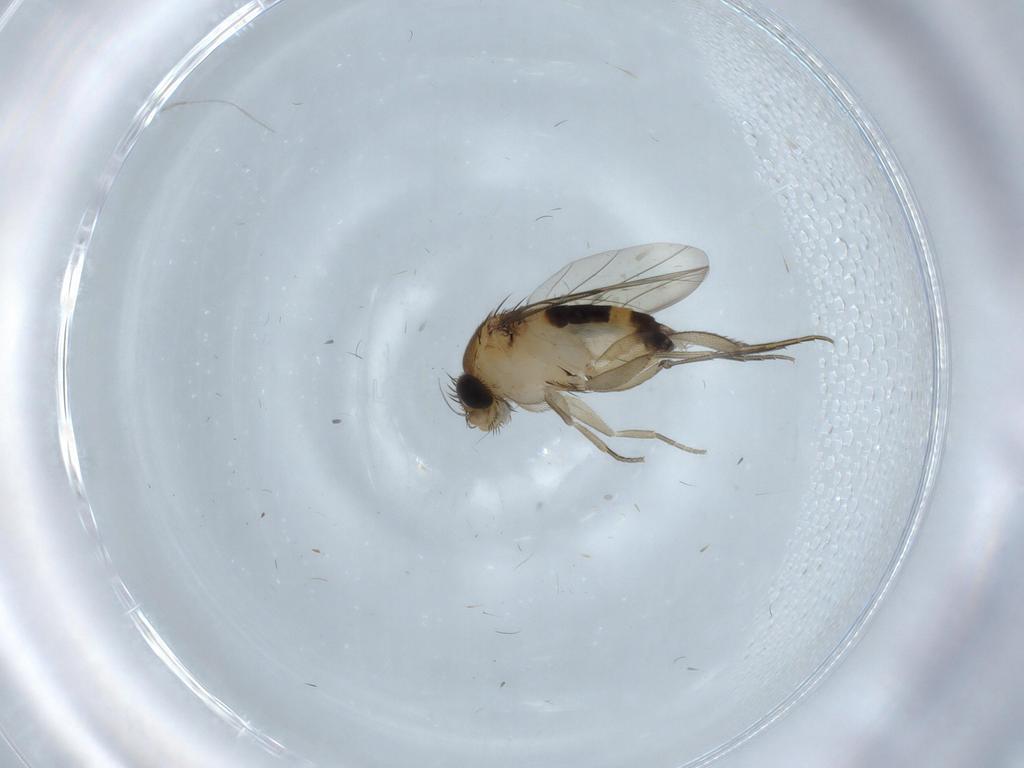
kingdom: Animalia
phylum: Arthropoda
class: Insecta
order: Diptera
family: Phoridae
